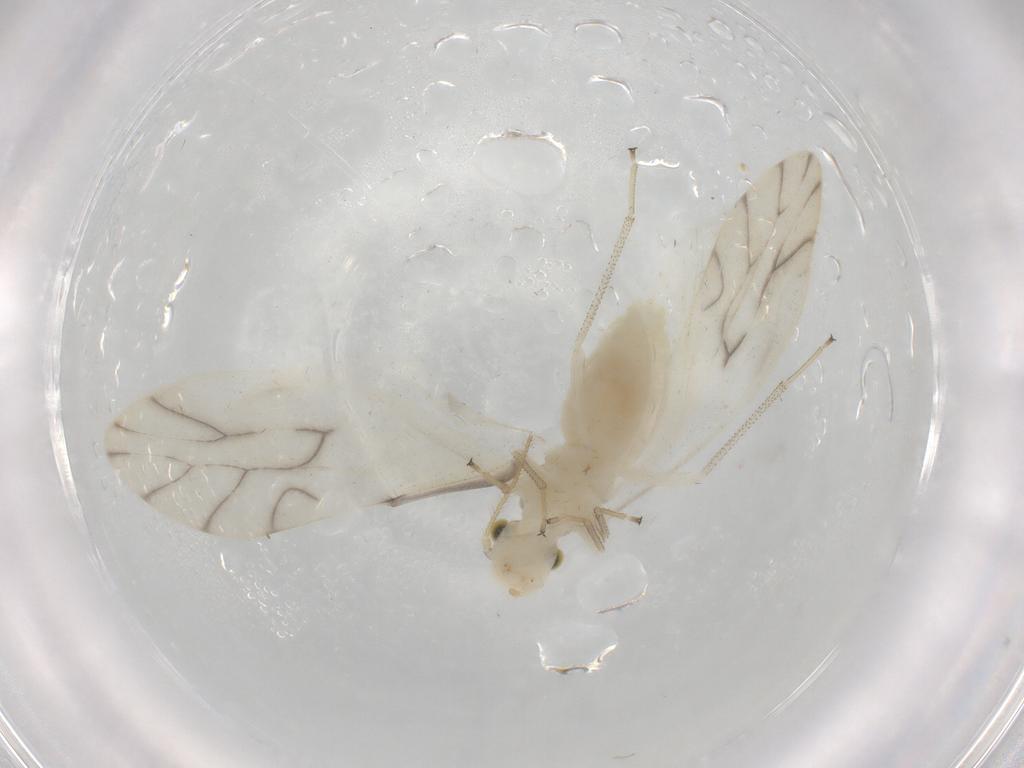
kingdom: Animalia
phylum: Arthropoda
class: Insecta
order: Psocodea
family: Caeciliusidae
